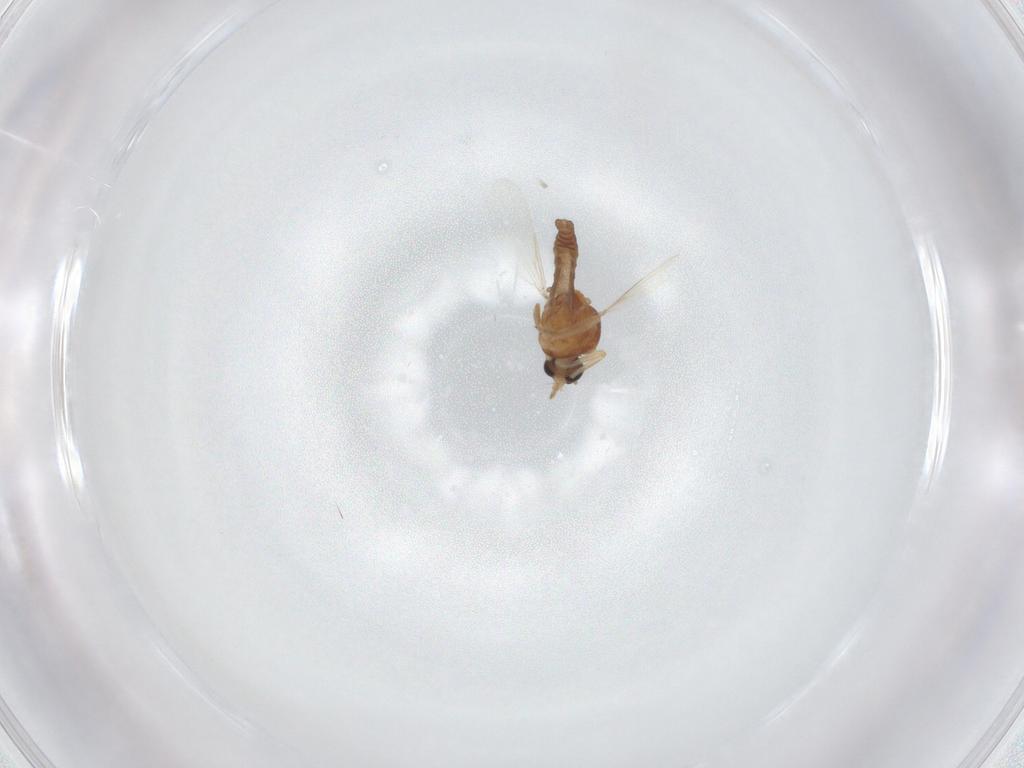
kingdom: Animalia
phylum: Arthropoda
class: Insecta
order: Diptera
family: Ceratopogonidae
